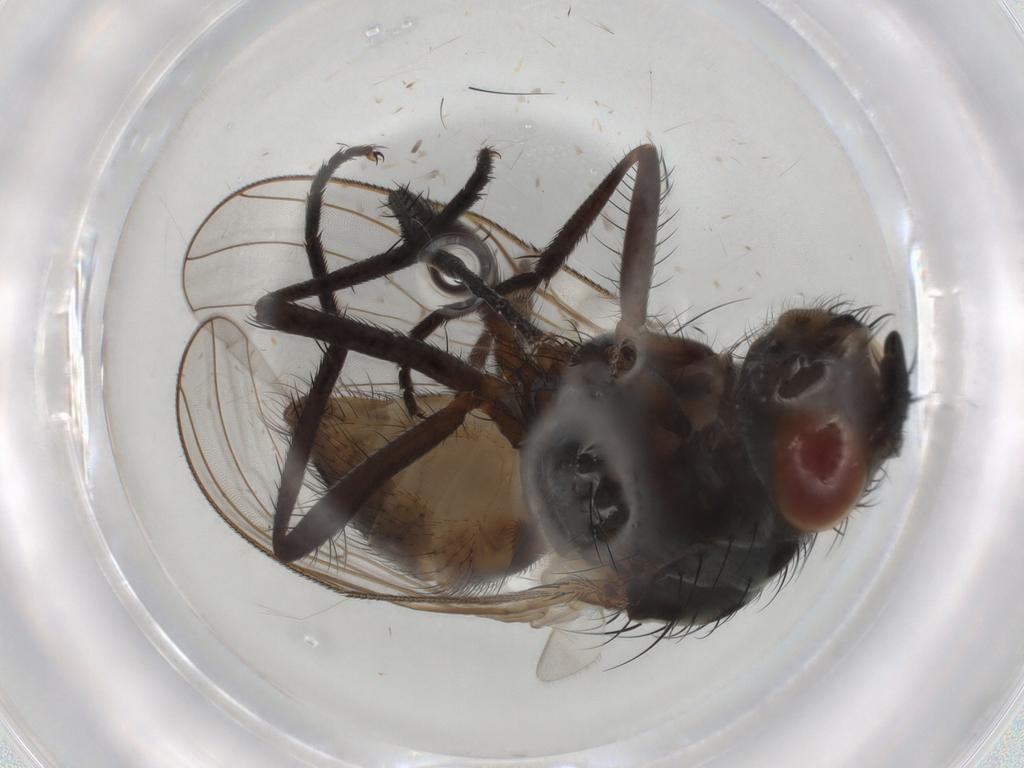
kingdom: Animalia
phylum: Arthropoda
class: Insecta
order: Diptera
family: Anthomyiidae
